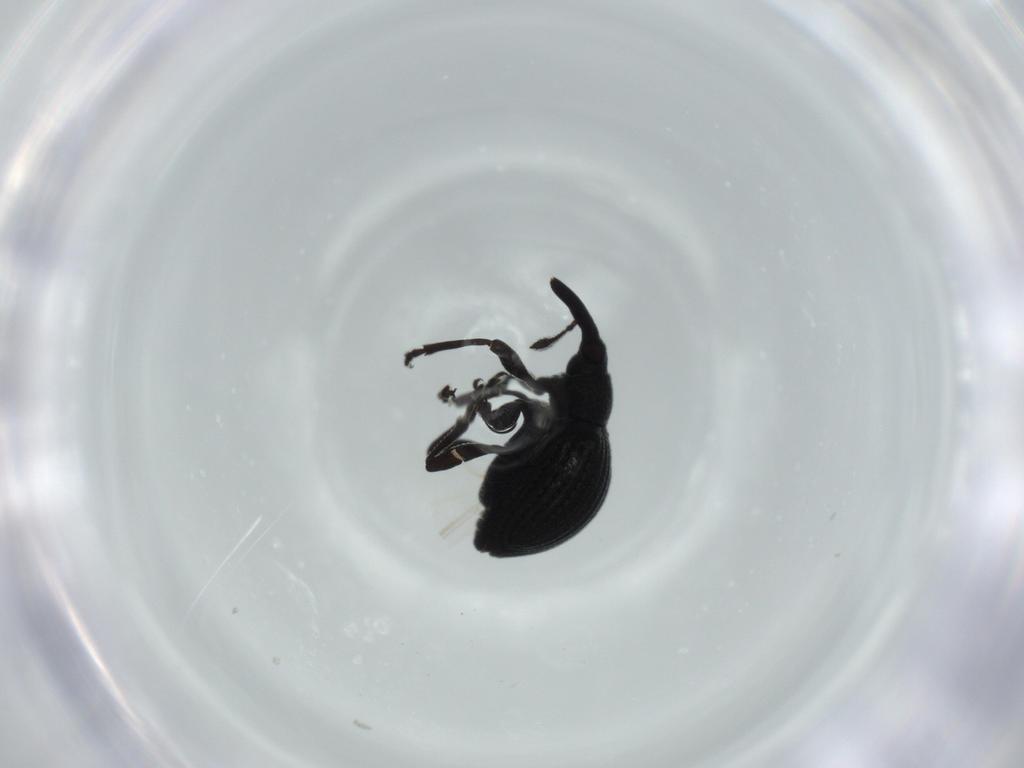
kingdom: Animalia
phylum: Arthropoda
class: Insecta
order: Coleoptera
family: Brentidae
